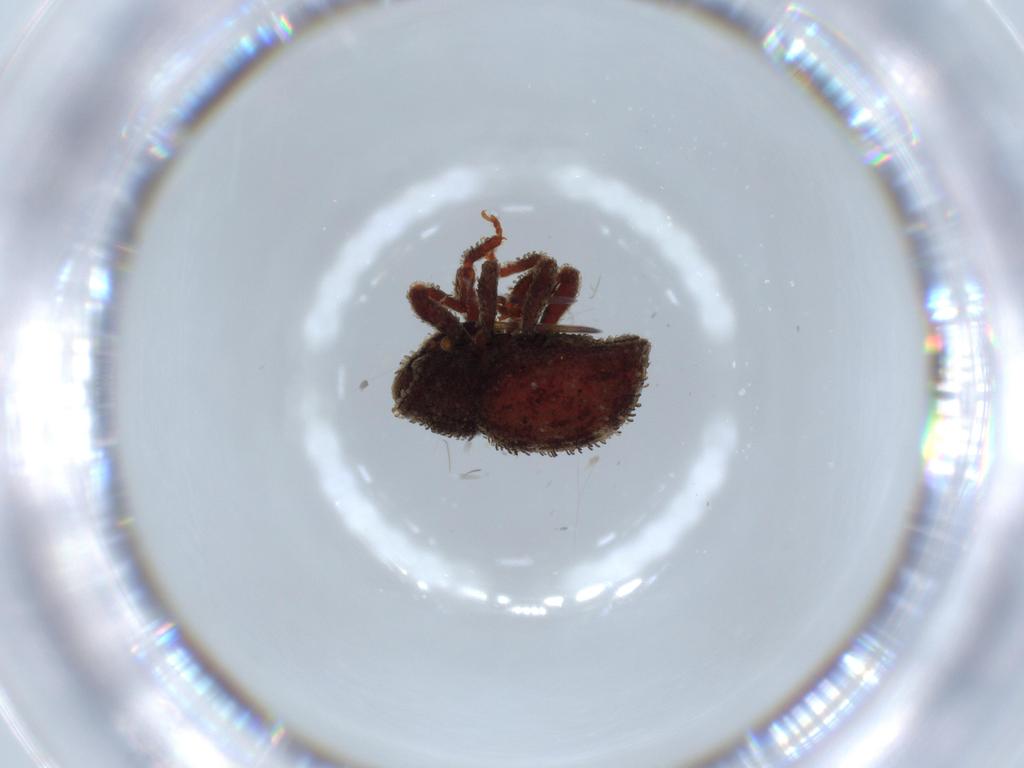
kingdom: Animalia
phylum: Arthropoda
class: Insecta
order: Coleoptera
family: Curculionidae
